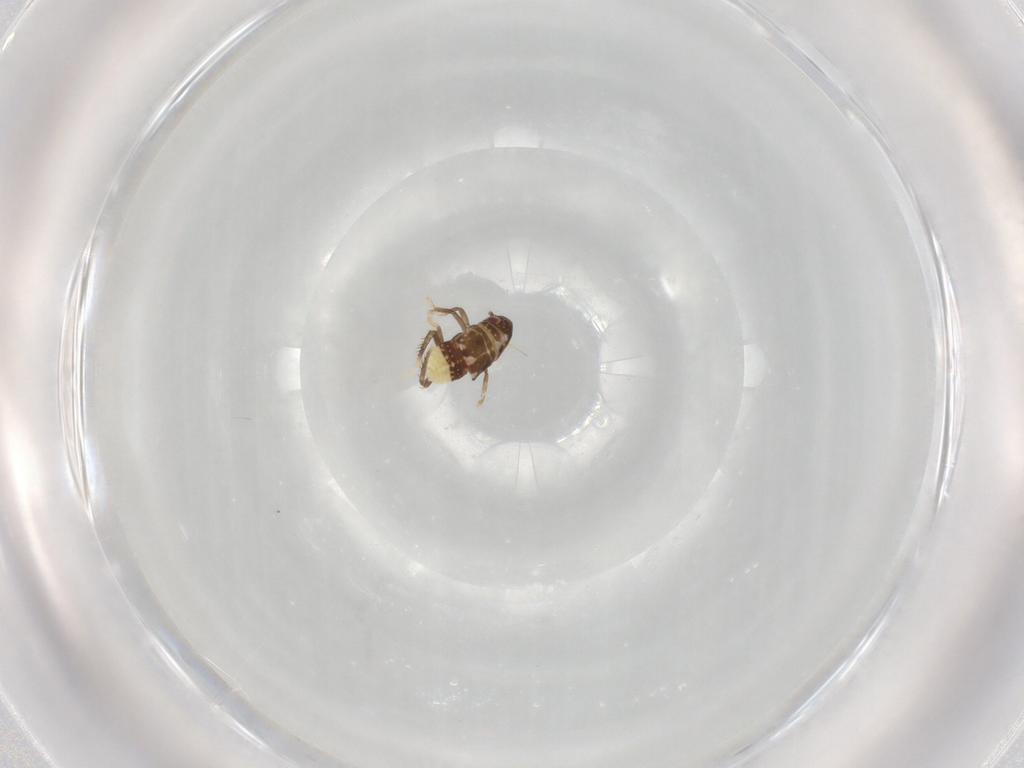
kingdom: Animalia
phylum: Arthropoda
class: Insecta
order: Hemiptera
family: Cicadellidae
